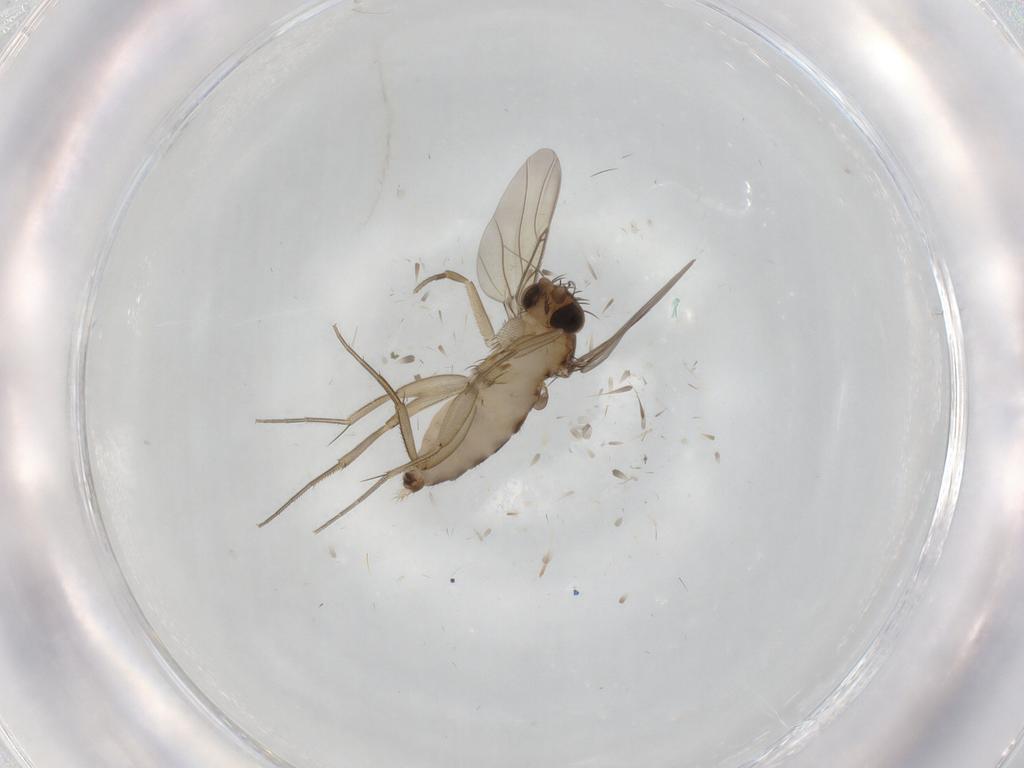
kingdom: Animalia
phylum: Arthropoda
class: Insecta
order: Diptera
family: Phoridae
